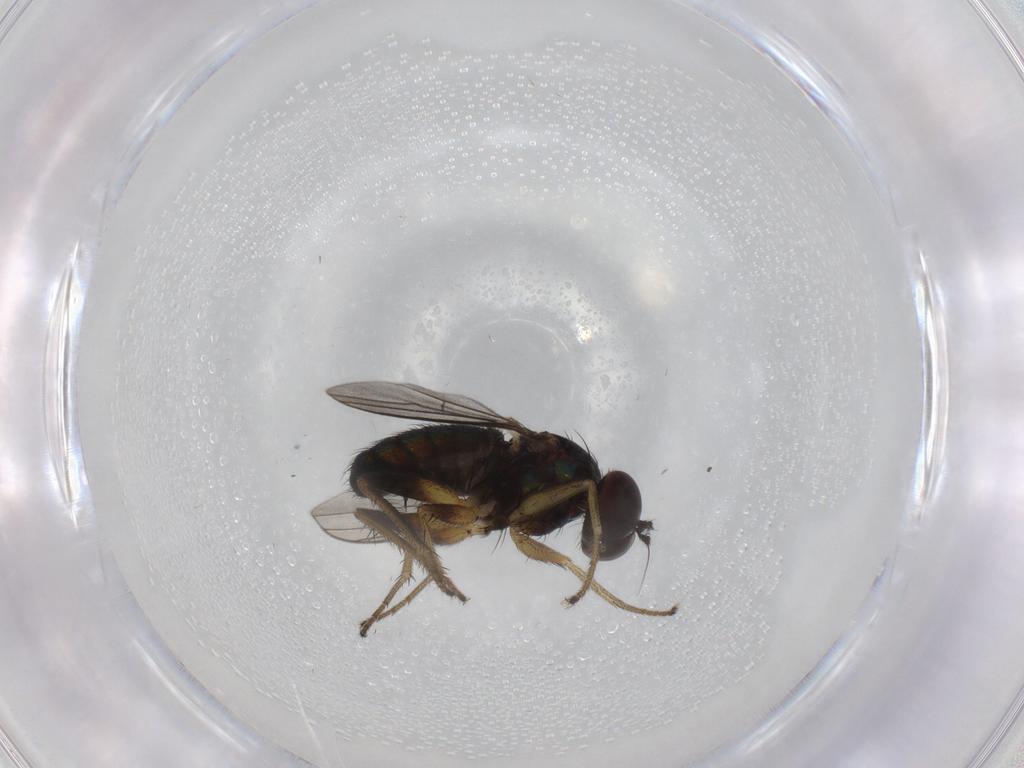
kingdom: Animalia
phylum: Arthropoda
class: Insecta
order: Diptera
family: Dolichopodidae
